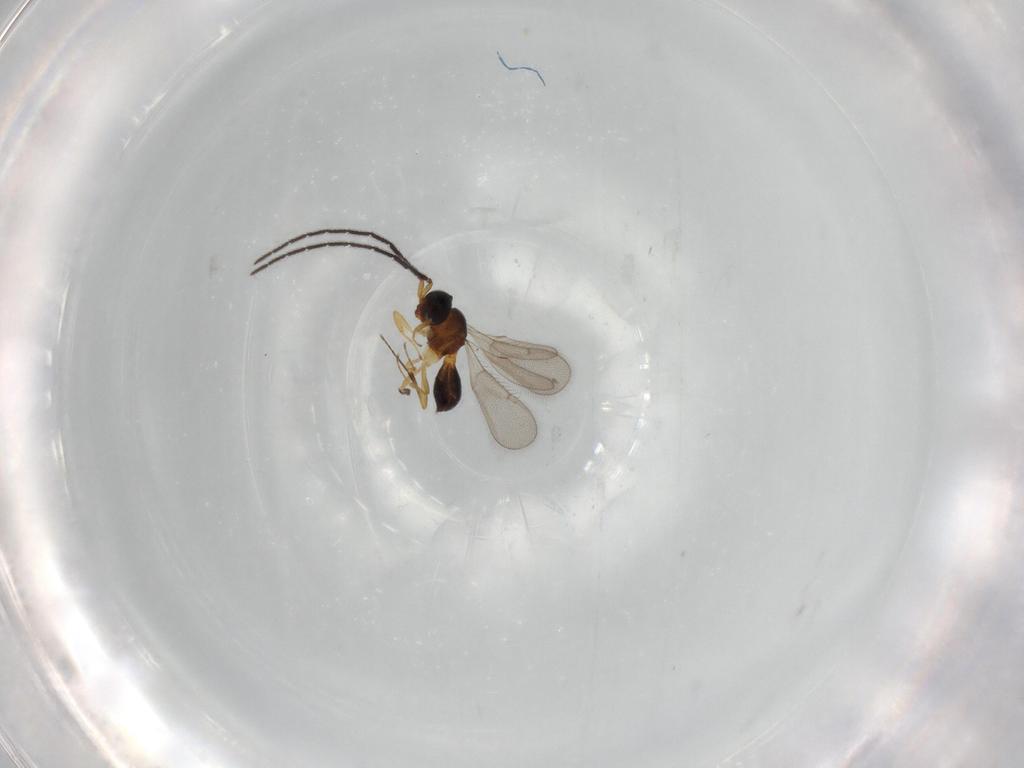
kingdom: Animalia
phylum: Arthropoda
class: Insecta
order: Hymenoptera
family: Scelionidae
